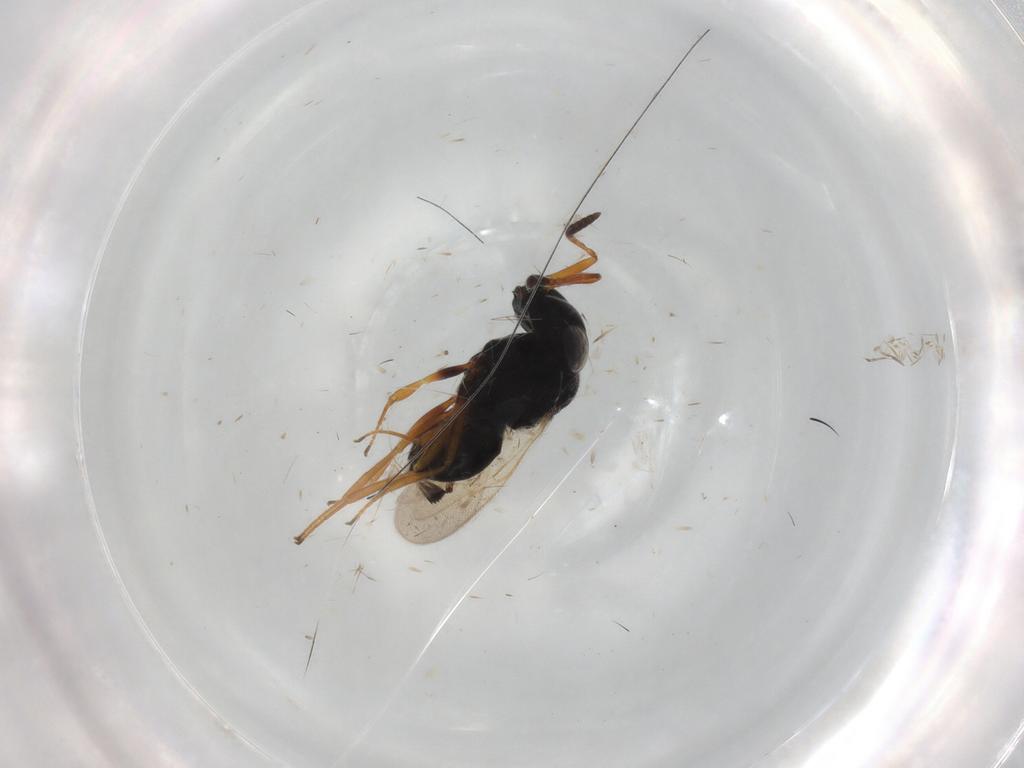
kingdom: Animalia
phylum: Arthropoda
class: Insecta
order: Hymenoptera
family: Scelionidae
